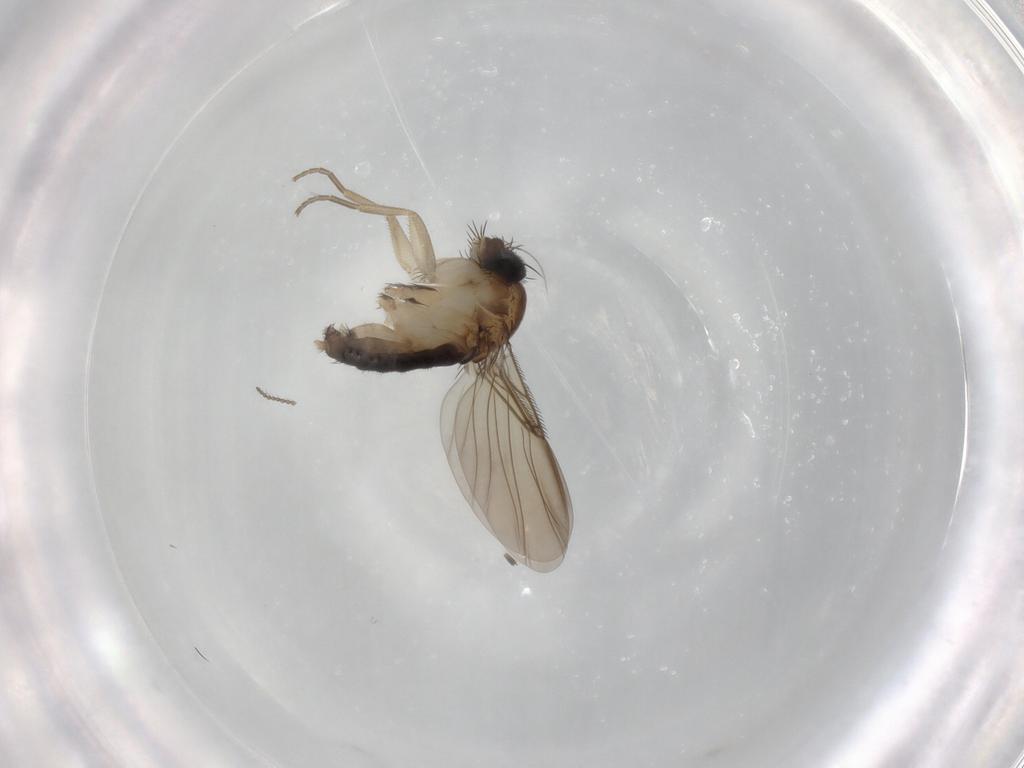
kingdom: Animalia
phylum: Arthropoda
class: Insecta
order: Diptera
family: Phoridae
